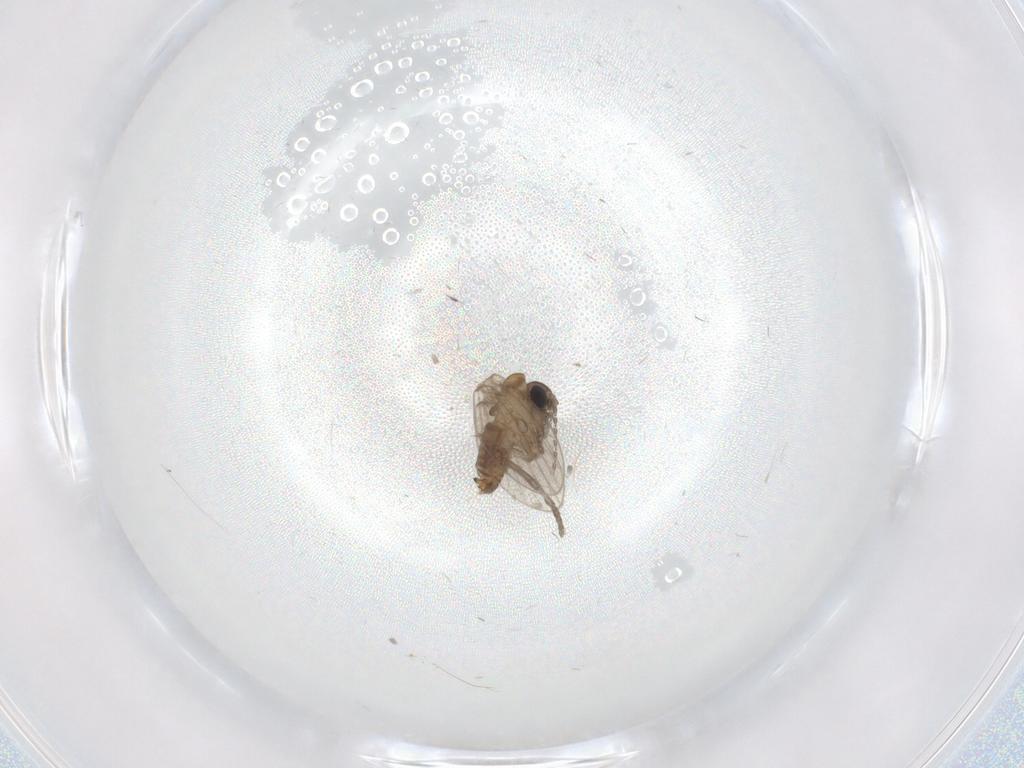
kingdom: Animalia
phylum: Arthropoda
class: Insecta
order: Diptera
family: Psychodidae
